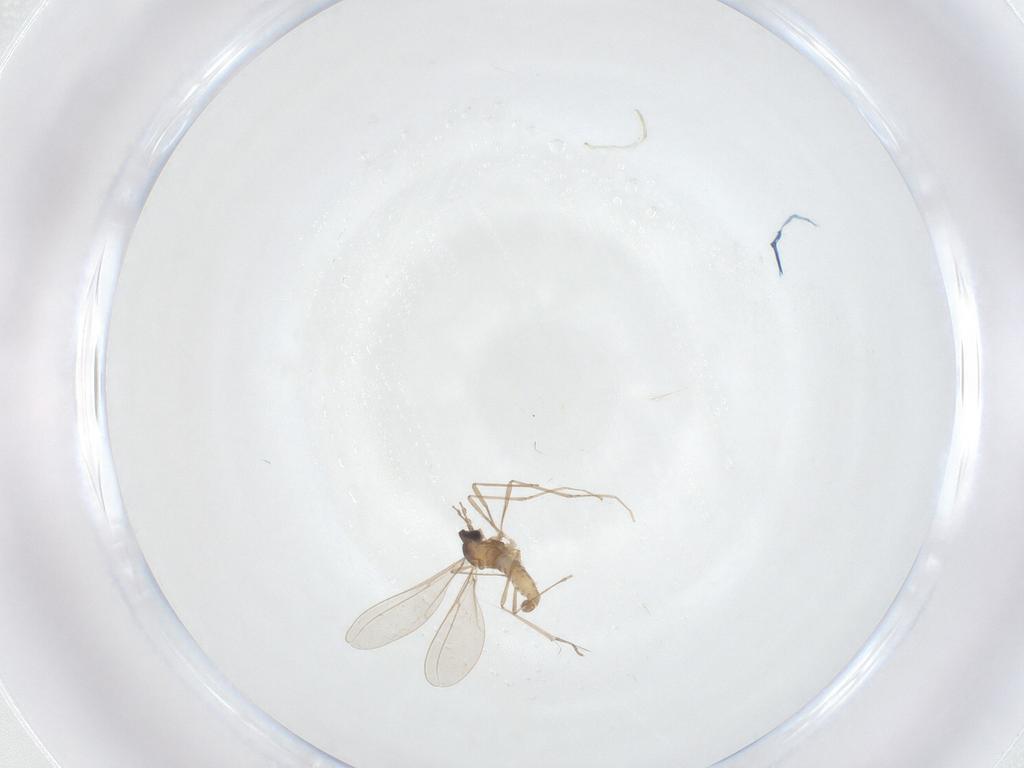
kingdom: Animalia
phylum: Arthropoda
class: Insecta
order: Diptera
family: Cecidomyiidae
